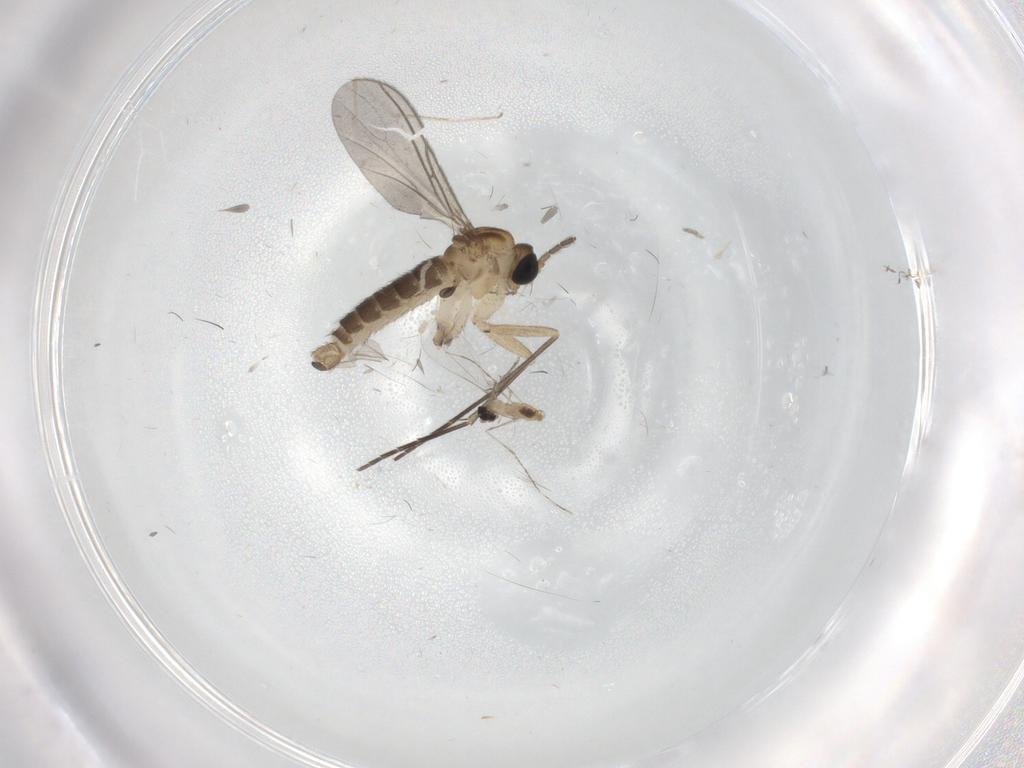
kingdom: Animalia
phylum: Arthropoda
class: Insecta
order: Diptera
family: Sciaridae
